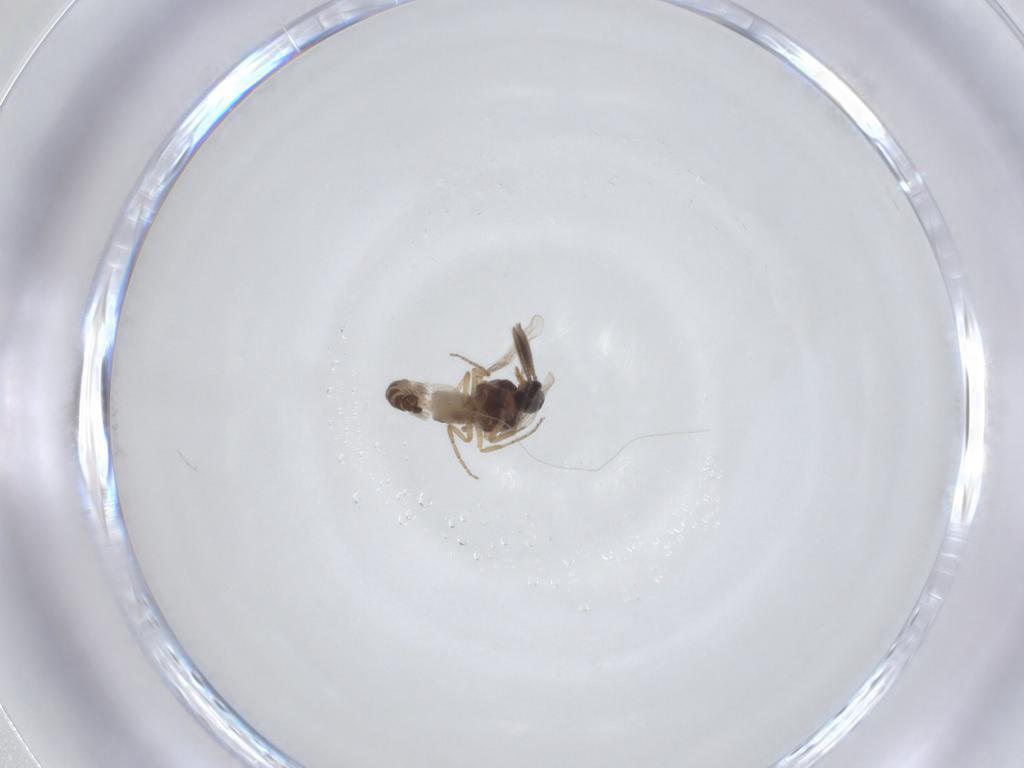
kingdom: Animalia
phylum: Arthropoda
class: Insecta
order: Diptera
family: Ceratopogonidae
